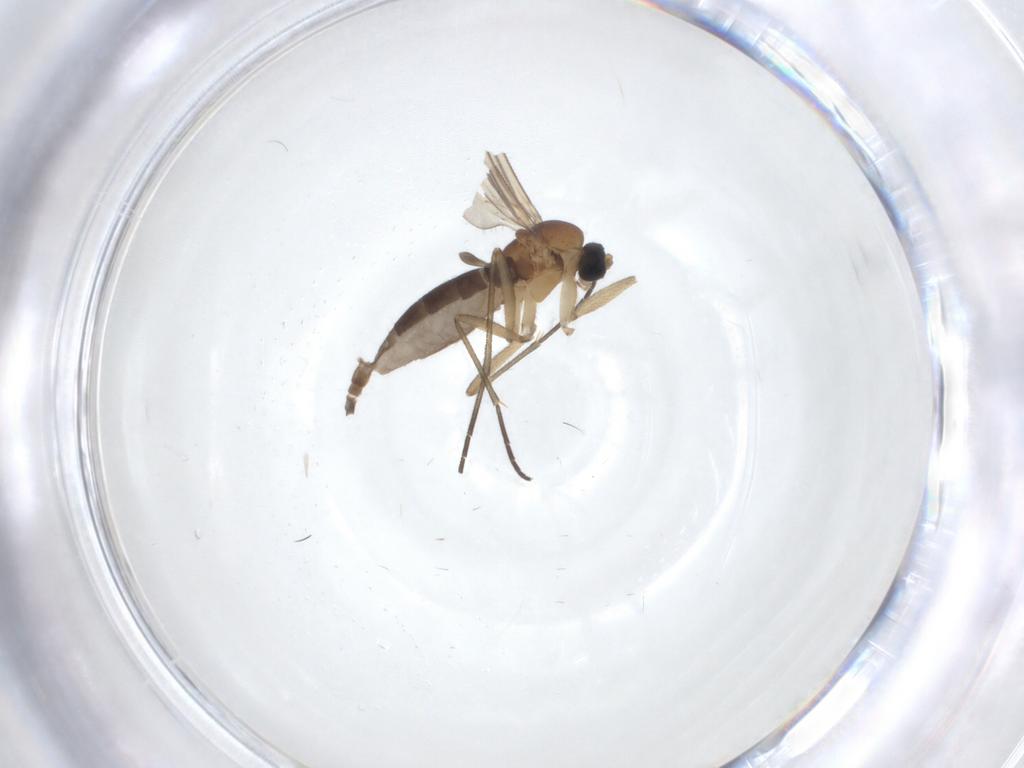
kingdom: Animalia
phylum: Arthropoda
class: Insecta
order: Diptera
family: Sciaridae
